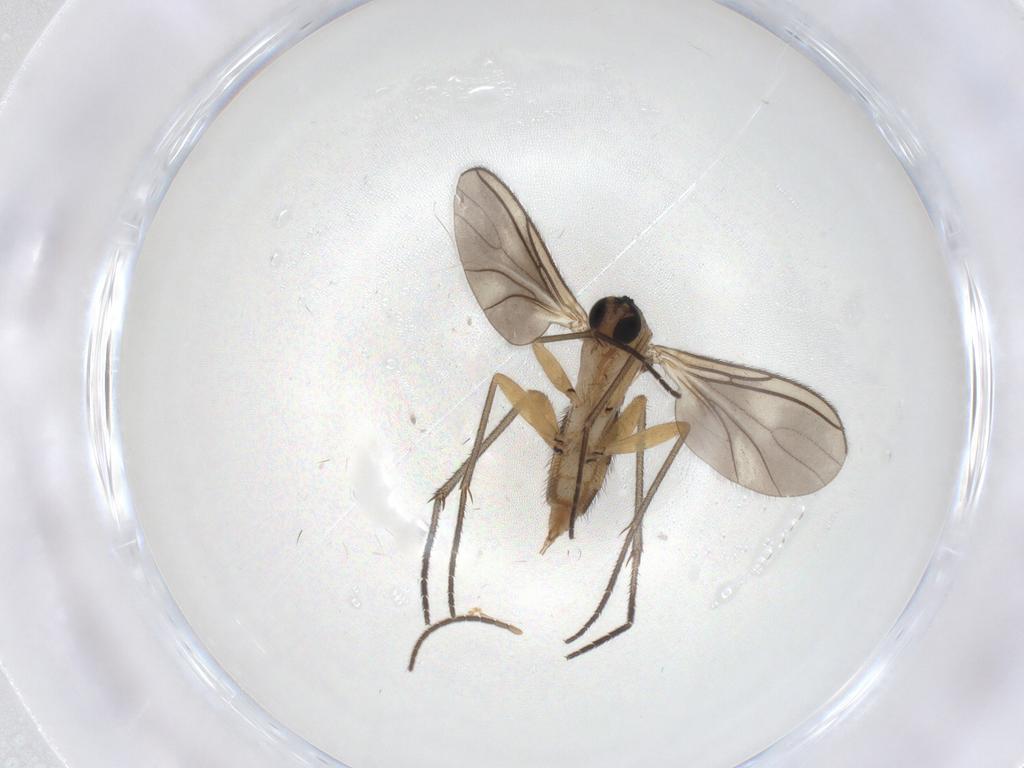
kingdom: Animalia
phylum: Arthropoda
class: Insecta
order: Diptera
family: Sciaridae
